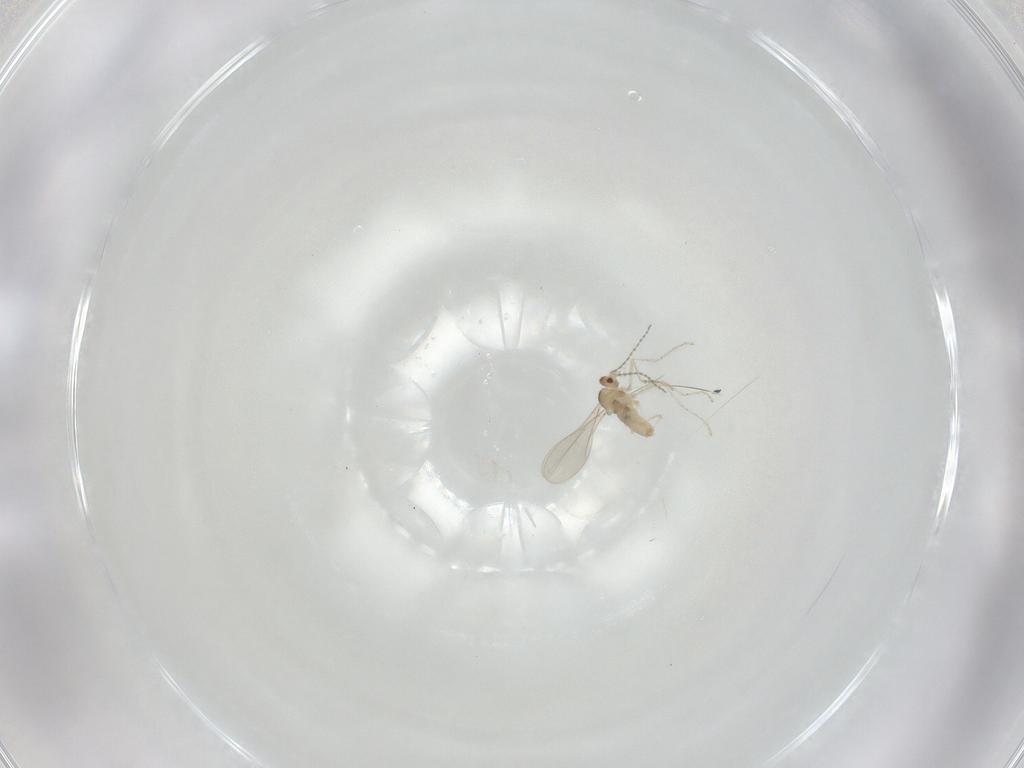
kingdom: Animalia
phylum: Arthropoda
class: Insecta
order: Diptera
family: Cecidomyiidae
